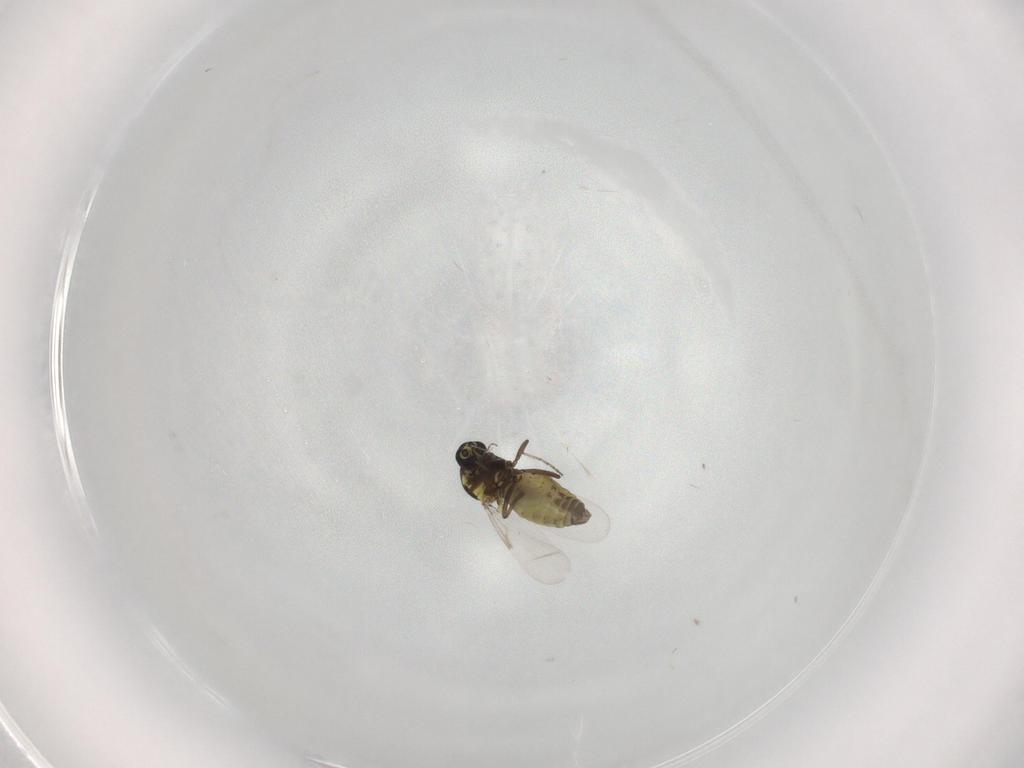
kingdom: Animalia
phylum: Arthropoda
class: Insecta
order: Diptera
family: Ceratopogonidae
